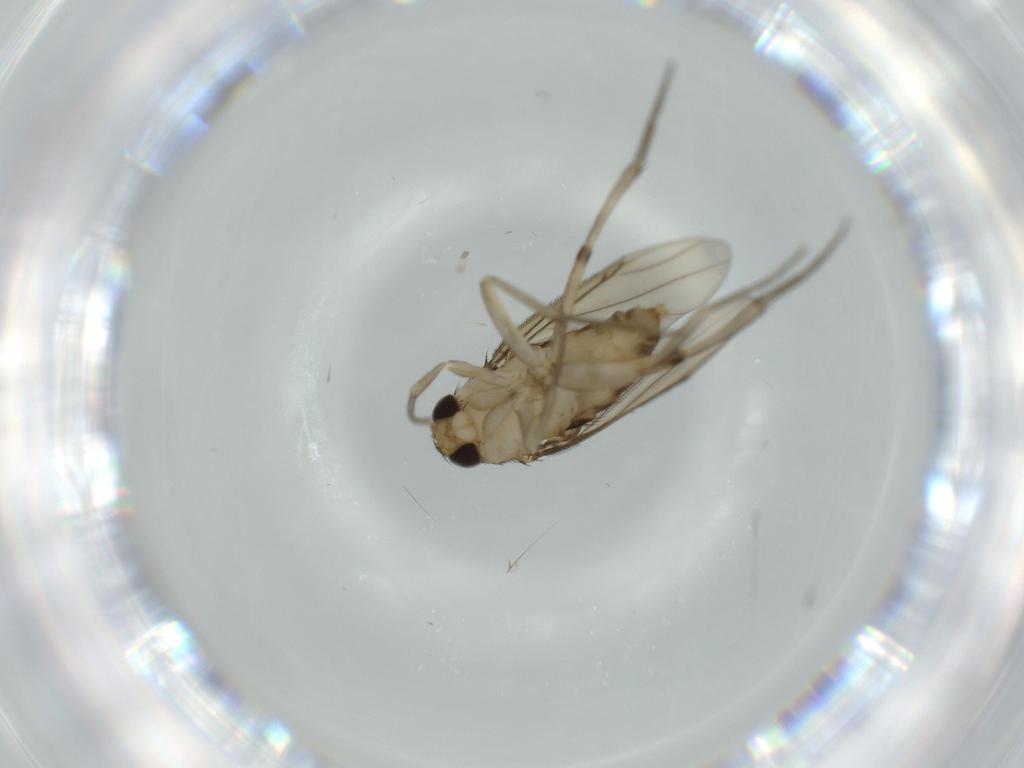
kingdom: Animalia
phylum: Arthropoda
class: Insecta
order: Diptera
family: Phoridae
